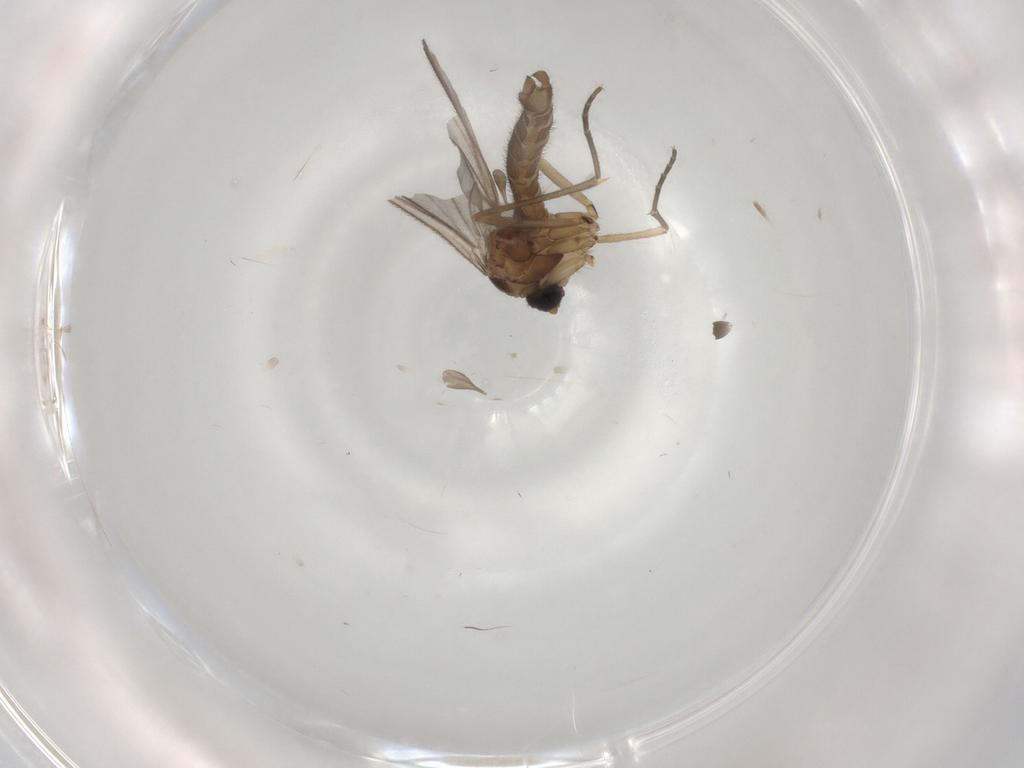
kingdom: Animalia
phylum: Arthropoda
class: Insecta
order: Diptera
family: Sciaridae
